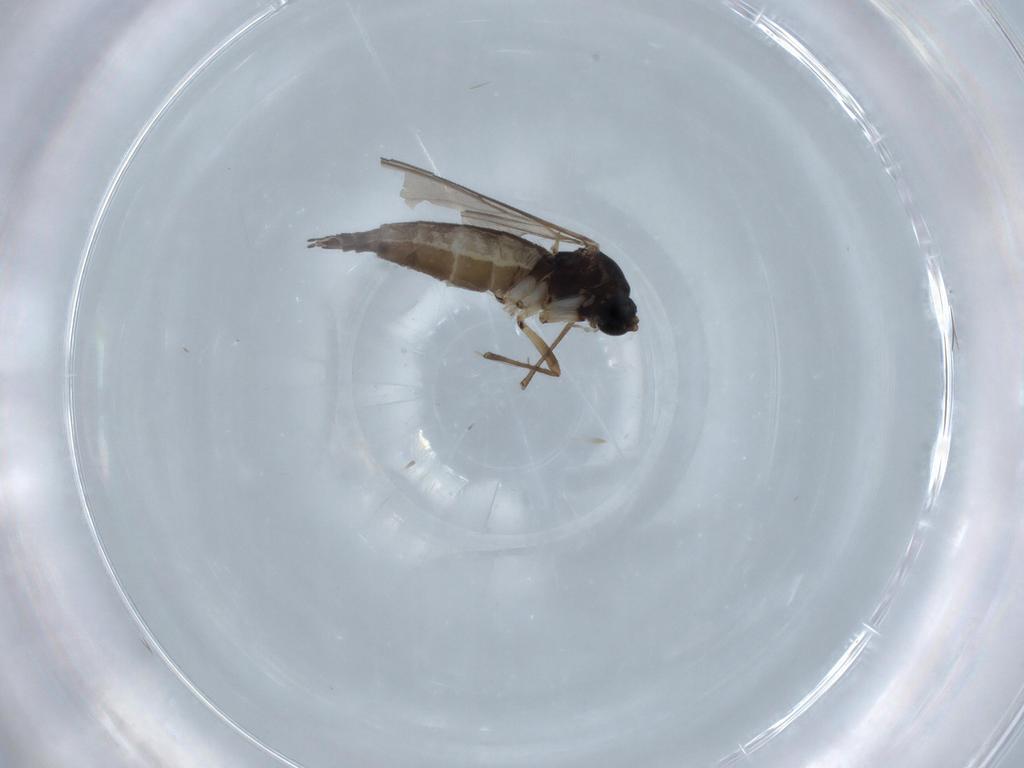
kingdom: Animalia
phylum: Arthropoda
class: Insecta
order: Diptera
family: Sciaridae
